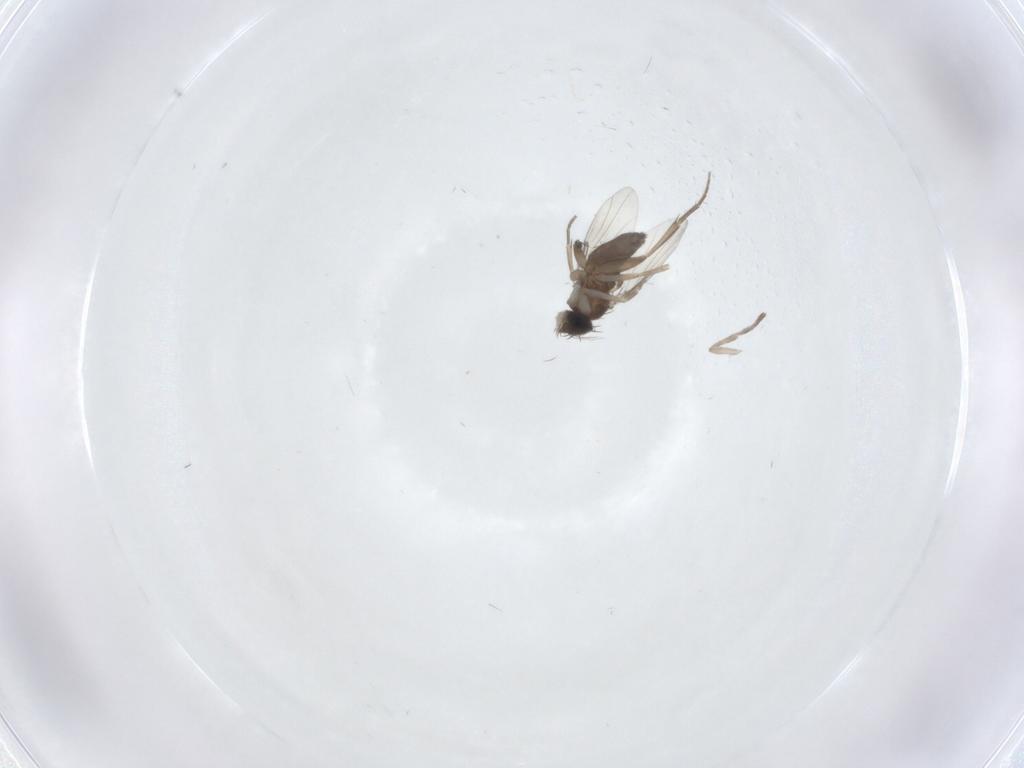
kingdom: Animalia
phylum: Arthropoda
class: Insecta
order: Diptera
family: Phoridae
